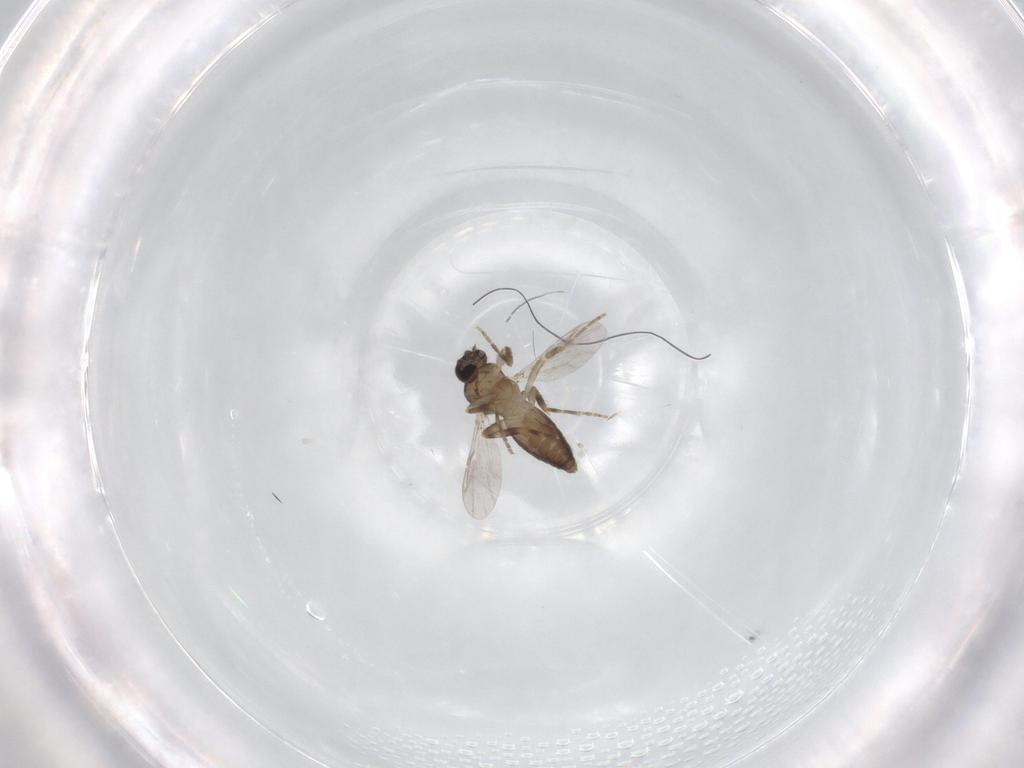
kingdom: Animalia
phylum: Arthropoda
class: Insecta
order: Diptera
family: Ceratopogonidae
